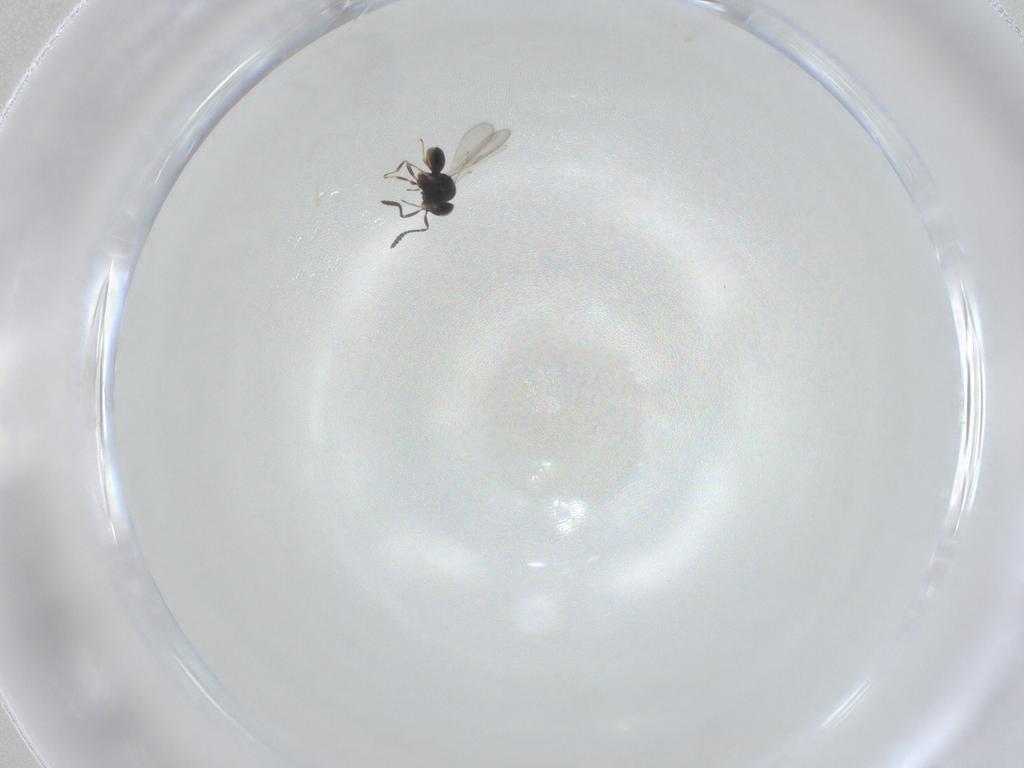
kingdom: Animalia
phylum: Arthropoda
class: Insecta
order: Hymenoptera
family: Scelionidae
